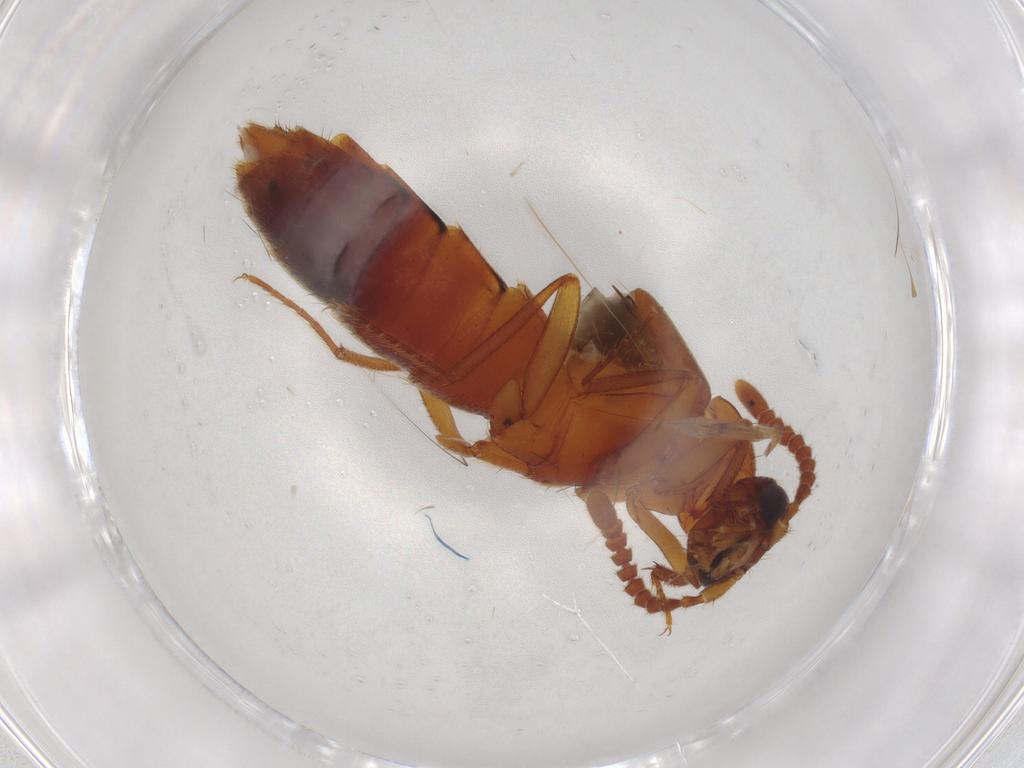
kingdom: Animalia
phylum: Arthropoda
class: Insecta
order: Coleoptera
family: Staphylinidae
